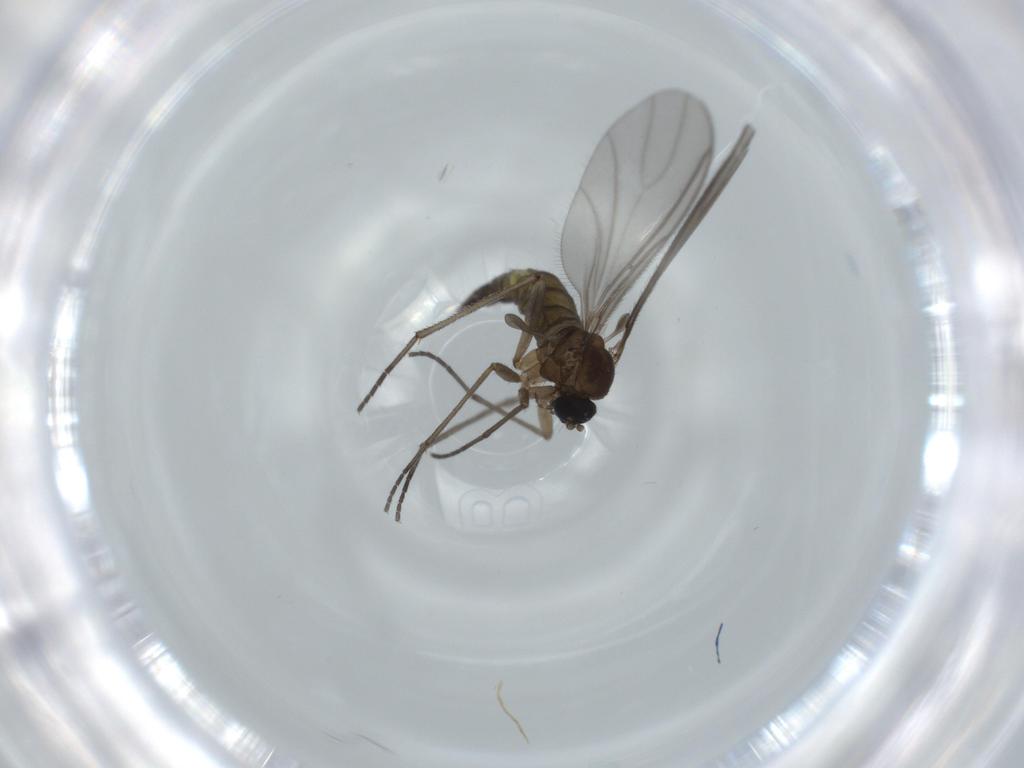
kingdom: Animalia
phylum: Arthropoda
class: Insecta
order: Diptera
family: Sciaridae
